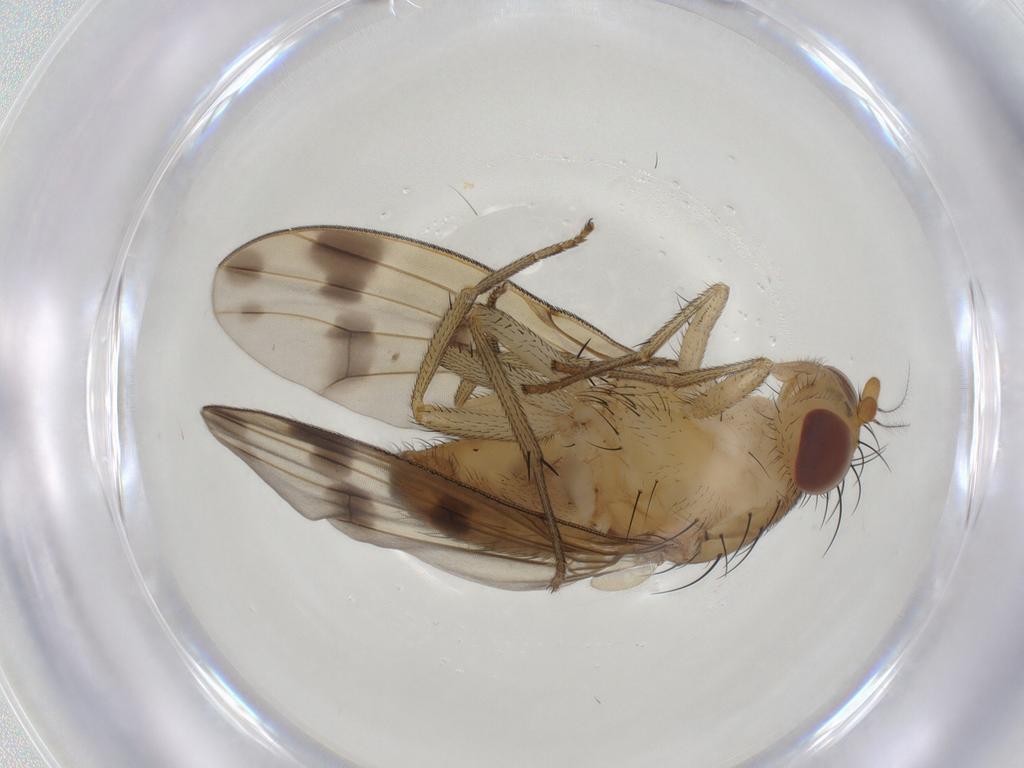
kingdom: Animalia
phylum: Arthropoda
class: Insecta
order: Diptera
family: Lauxaniidae
